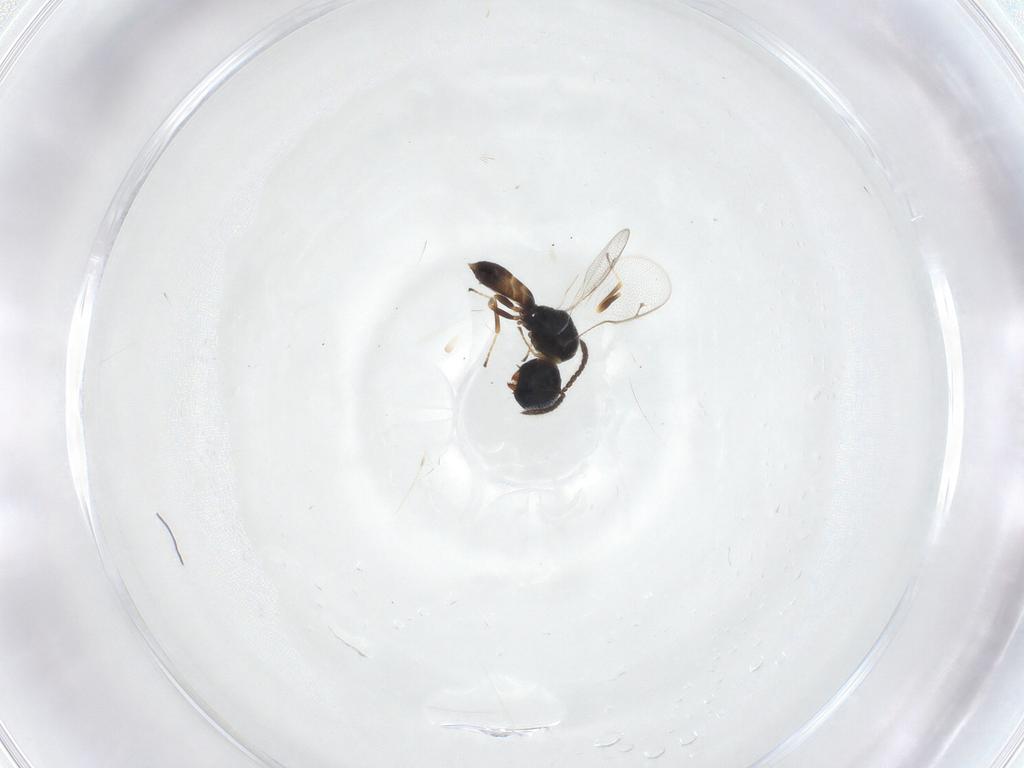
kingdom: Animalia
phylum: Arthropoda
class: Insecta
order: Hymenoptera
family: Pteromalidae
